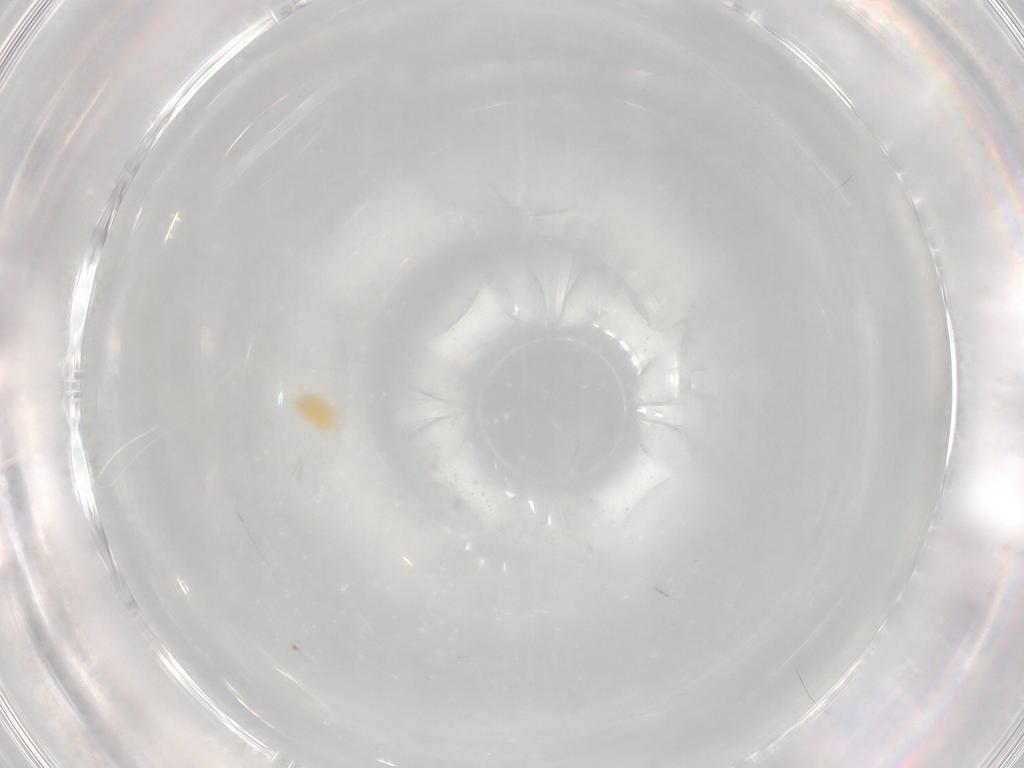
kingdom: Animalia
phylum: Arthropoda
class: Arachnida
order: Trombidiformes
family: Tetranychidae
